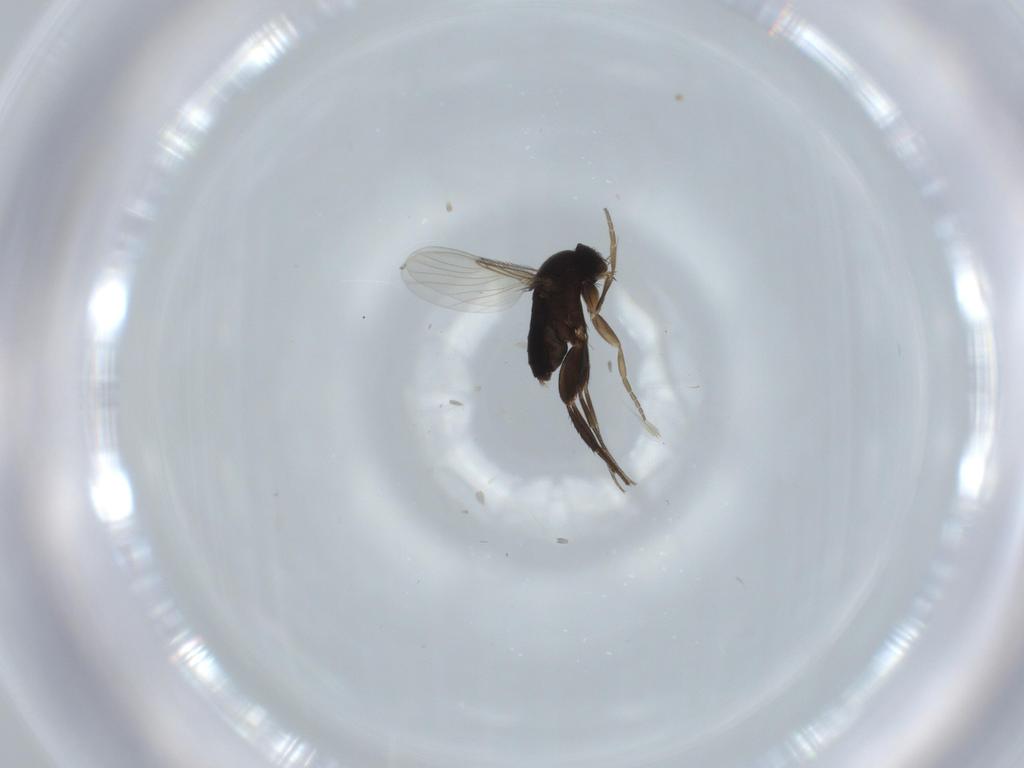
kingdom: Animalia
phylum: Arthropoda
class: Insecta
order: Diptera
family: Phoridae
